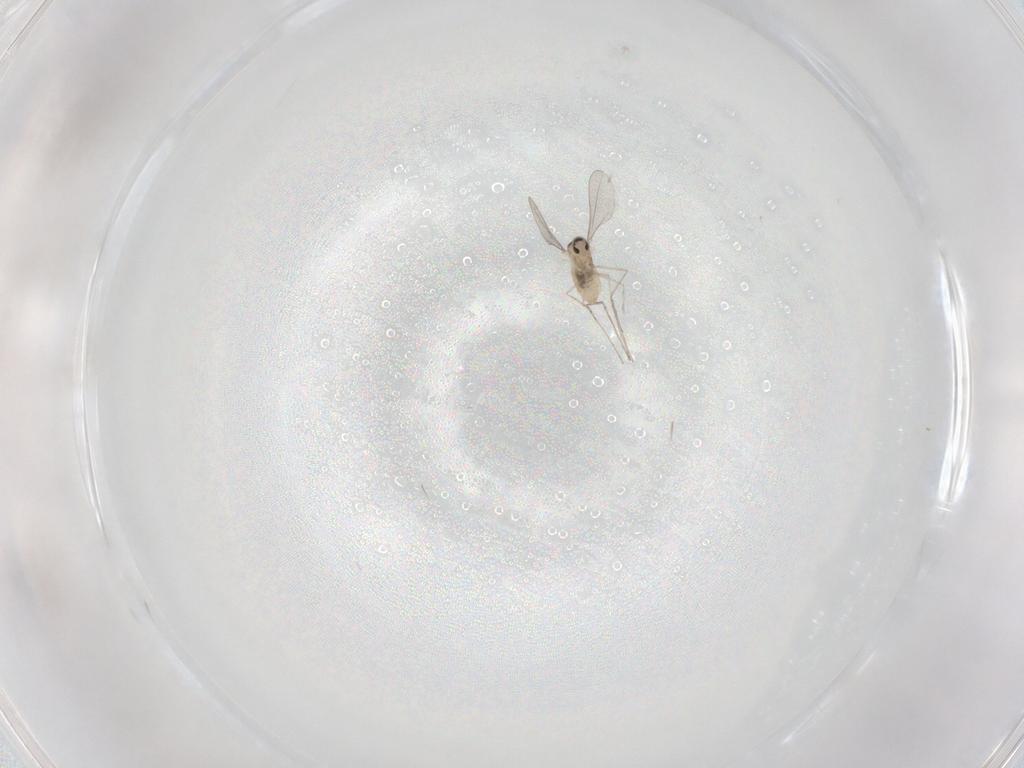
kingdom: Animalia
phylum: Arthropoda
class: Insecta
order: Diptera
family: Cecidomyiidae
